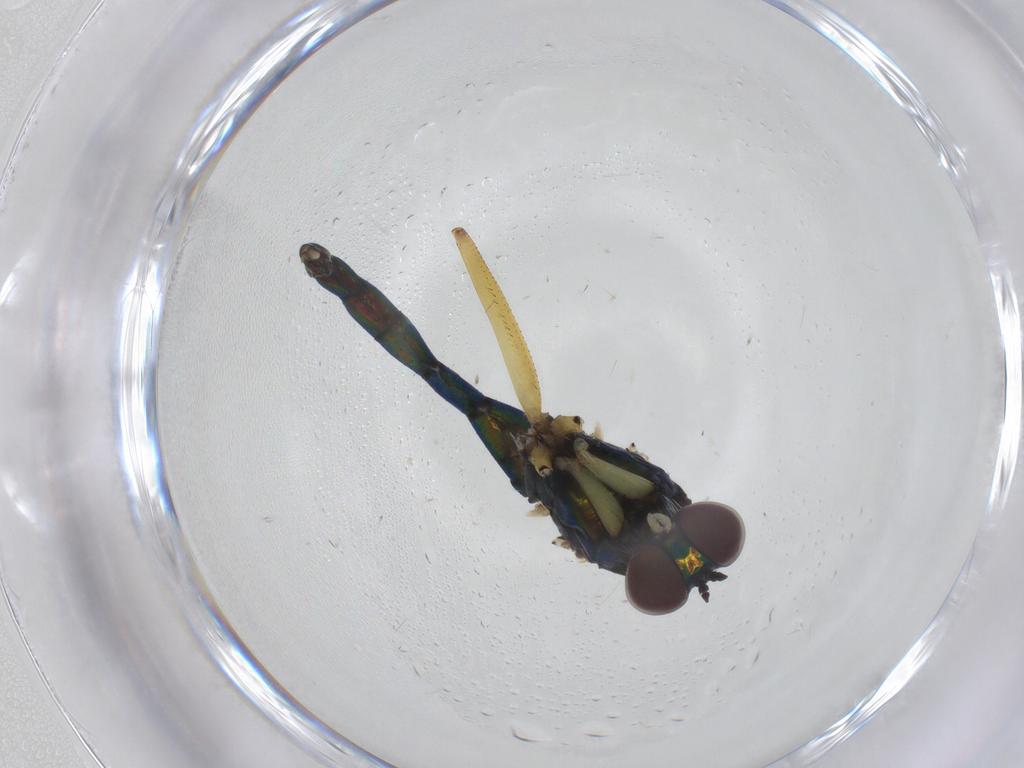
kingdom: Animalia
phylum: Arthropoda
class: Insecta
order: Diptera
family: Dolichopodidae
